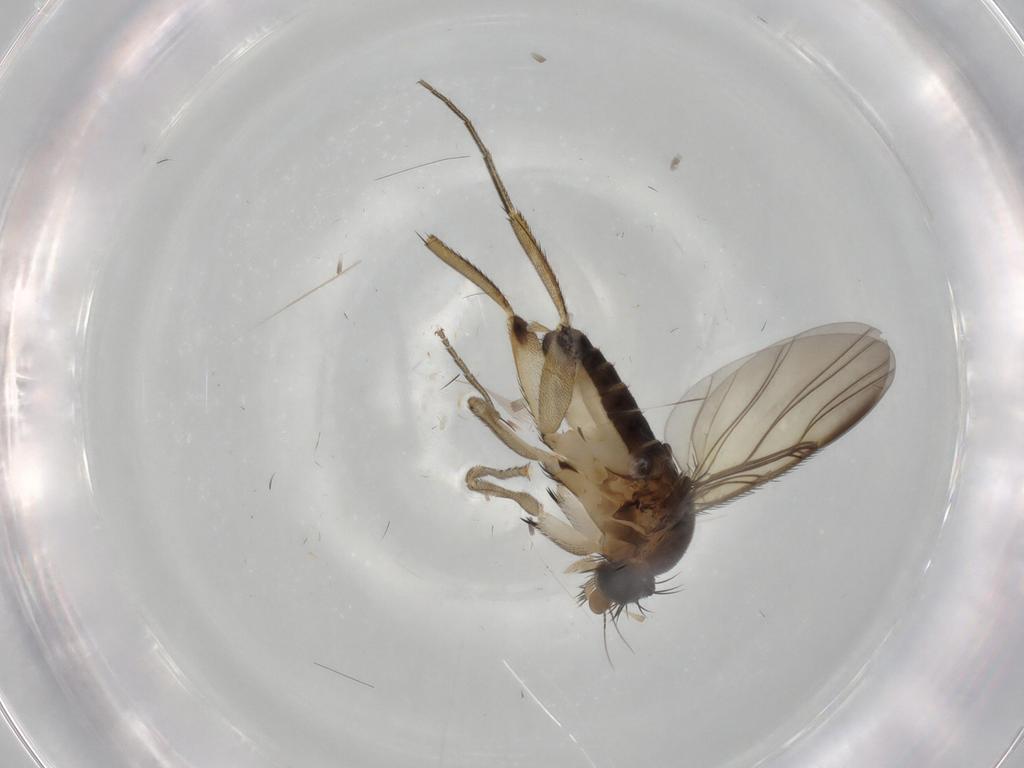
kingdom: Animalia
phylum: Arthropoda
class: Insecta
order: Diptera
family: Phoridae
